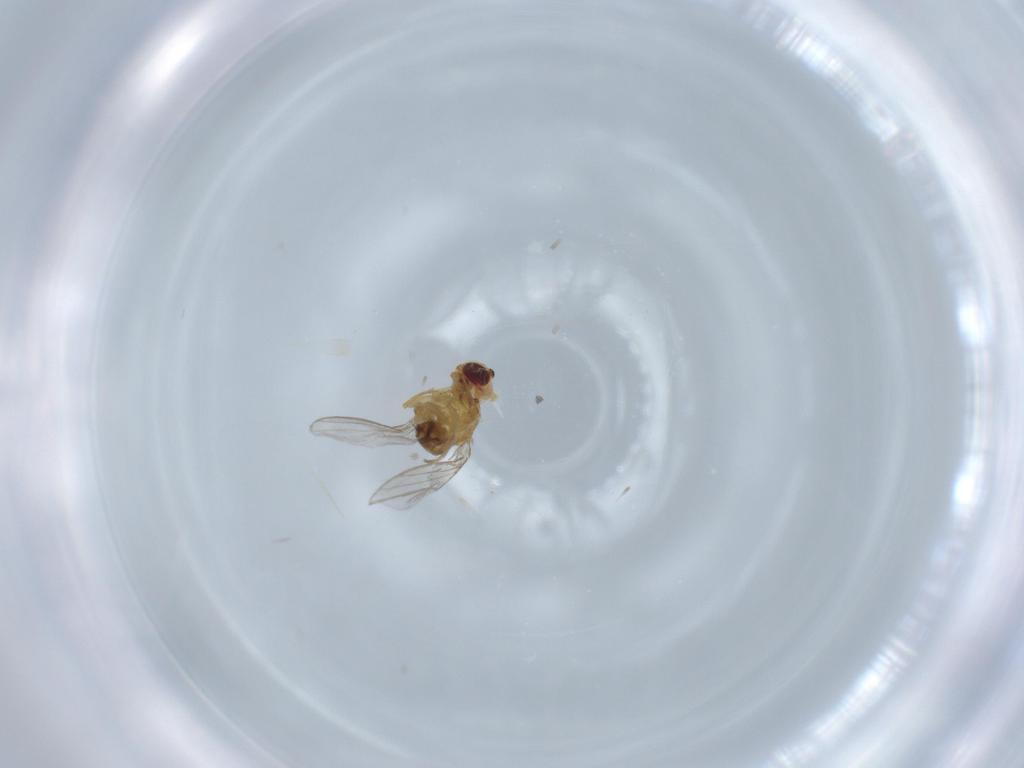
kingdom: Animalia
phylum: Arthropoda
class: Insecta
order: Diptera
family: Chloropidae
